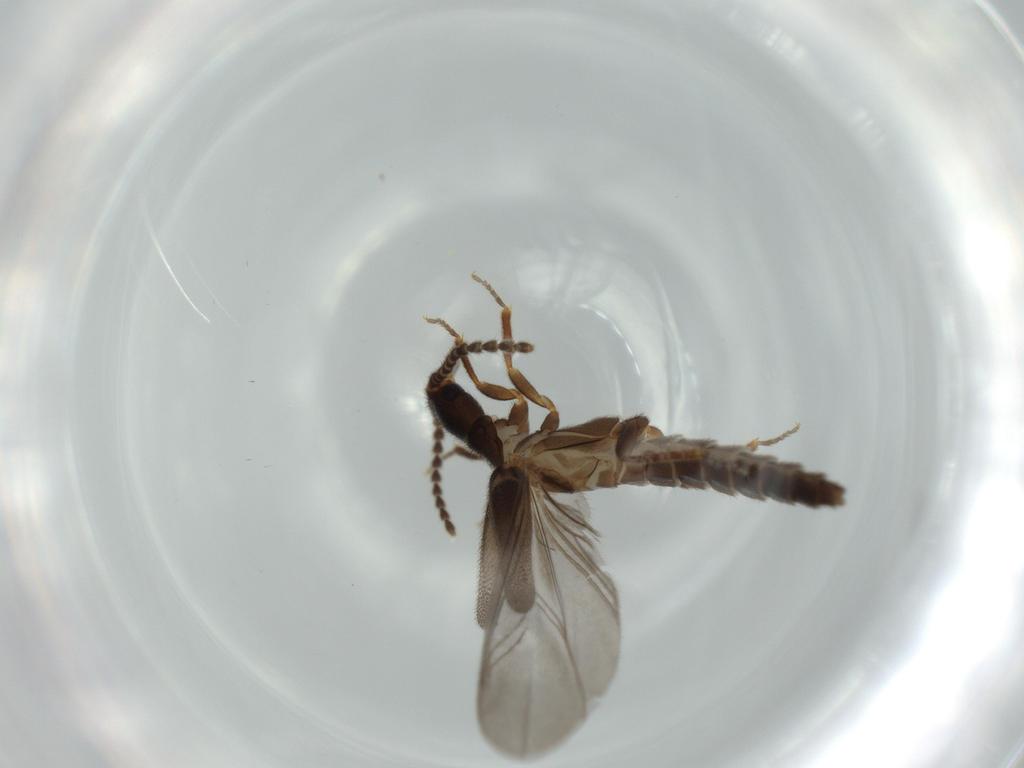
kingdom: Animalia
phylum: Arthropoda
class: Insecta
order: Coleoptera
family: Omethidae
